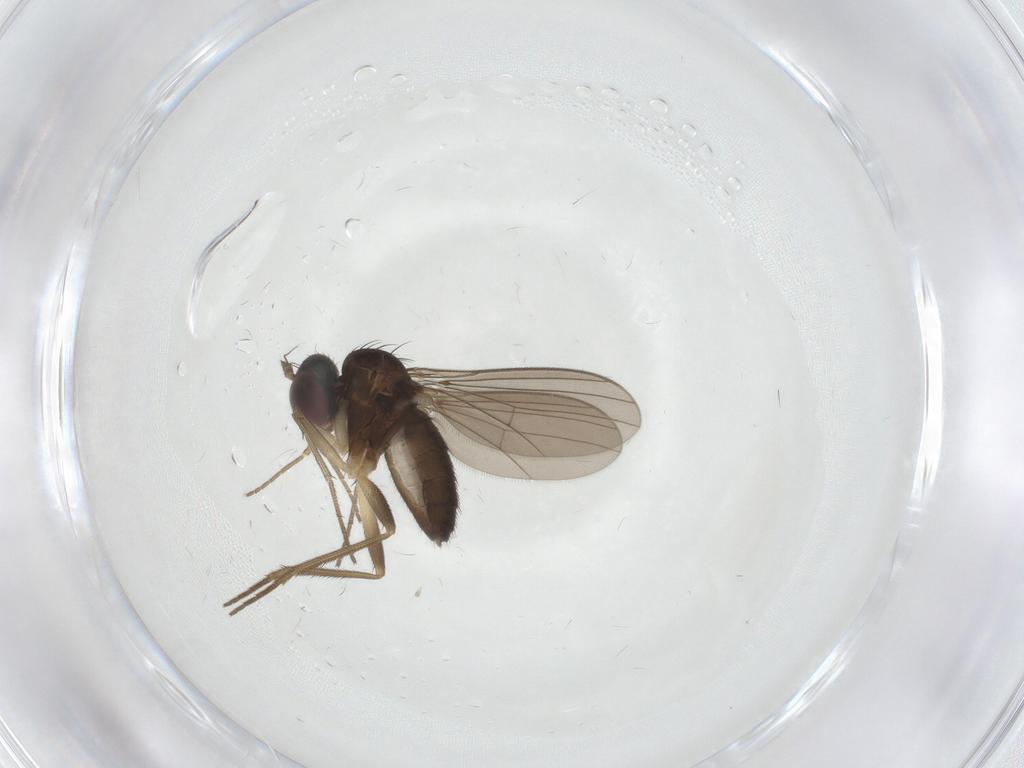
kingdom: Animalia
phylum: Arthropoda
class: Insecta
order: Diptera
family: Dolichopodidae
